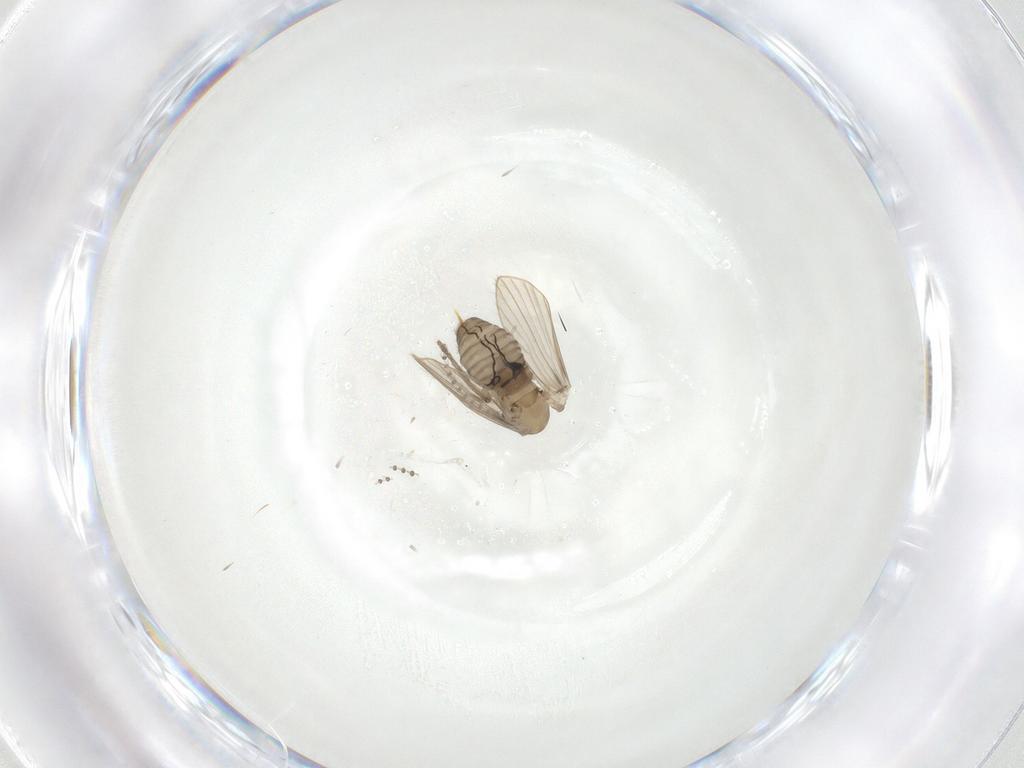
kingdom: Animalia
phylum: Arthropoda
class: Insecta
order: Diptera
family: Psychodidae
